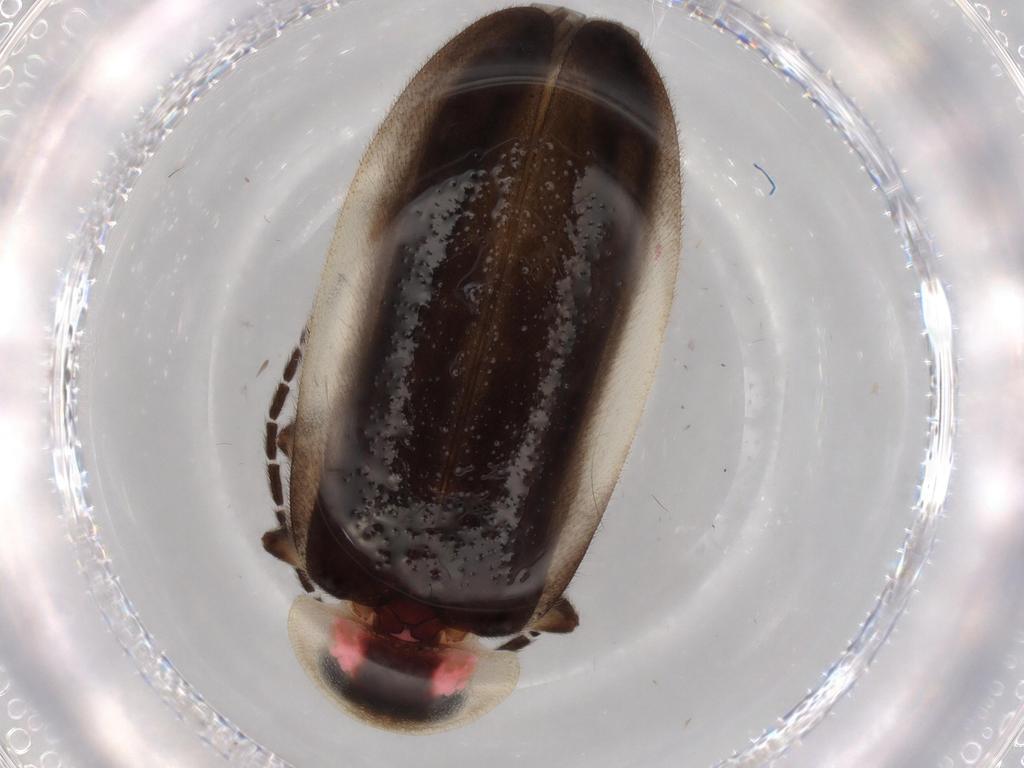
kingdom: Animalia
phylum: Arthropoda
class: Insecta
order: Coleoptera
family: Lampyridae
